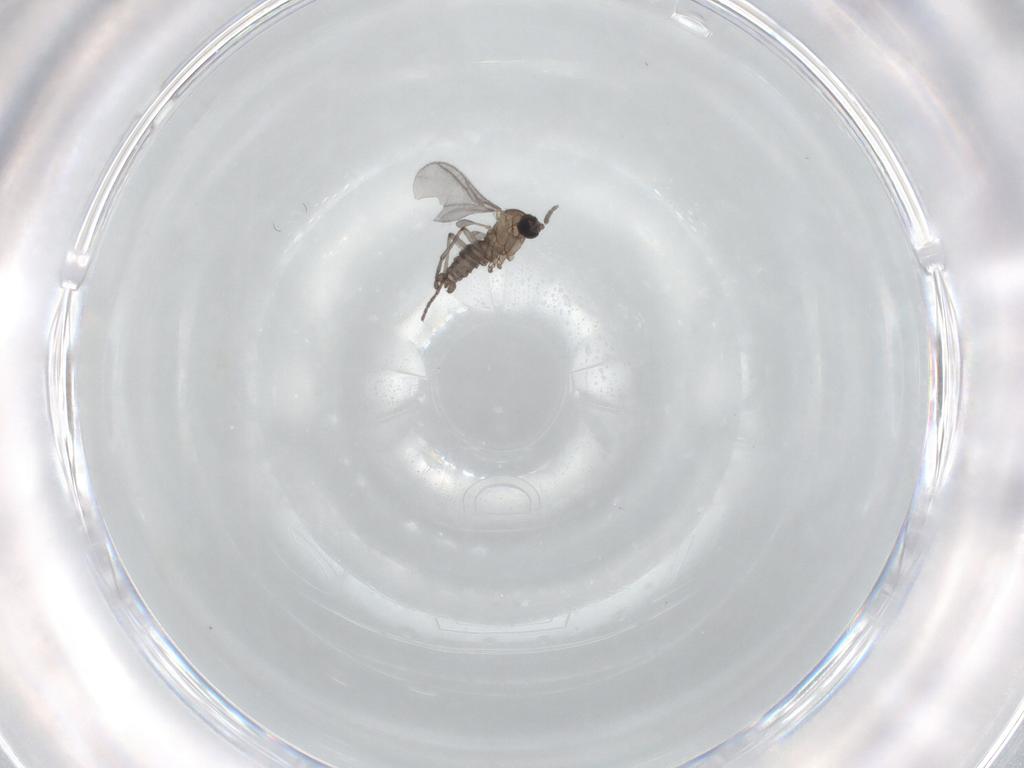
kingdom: Animalia
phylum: Arthropoda
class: Insecta
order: Diptera
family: Sciaridae
